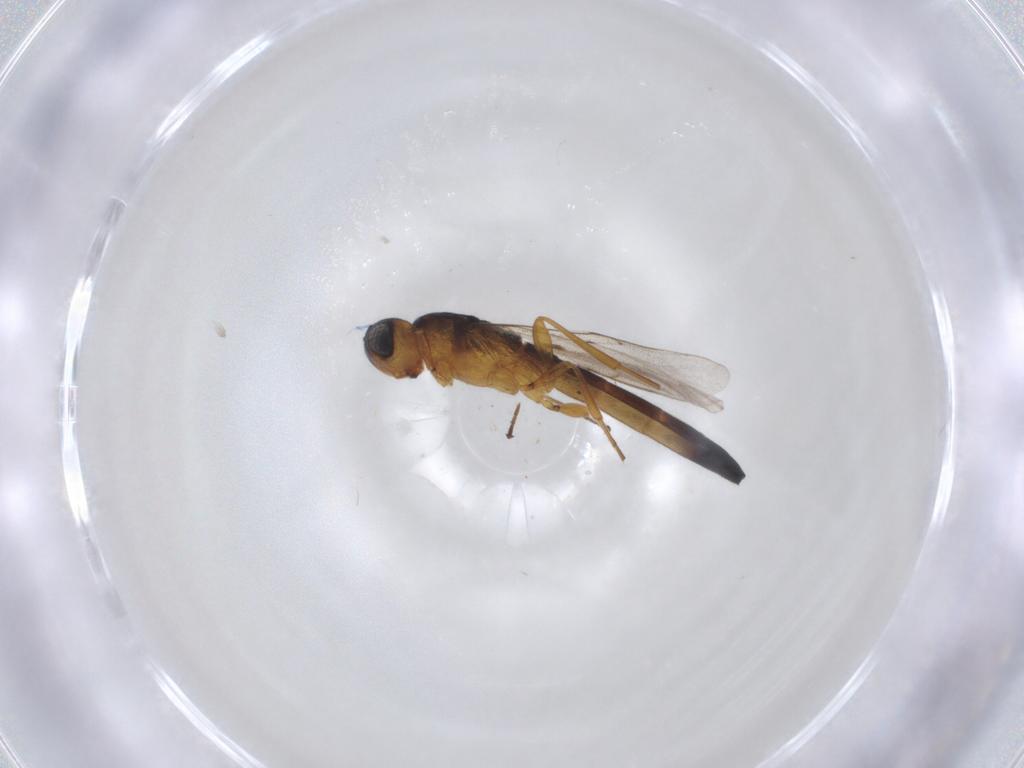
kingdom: Animalia
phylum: Arthropoda
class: Insecta
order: Hymenoptera
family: Scelionidae
